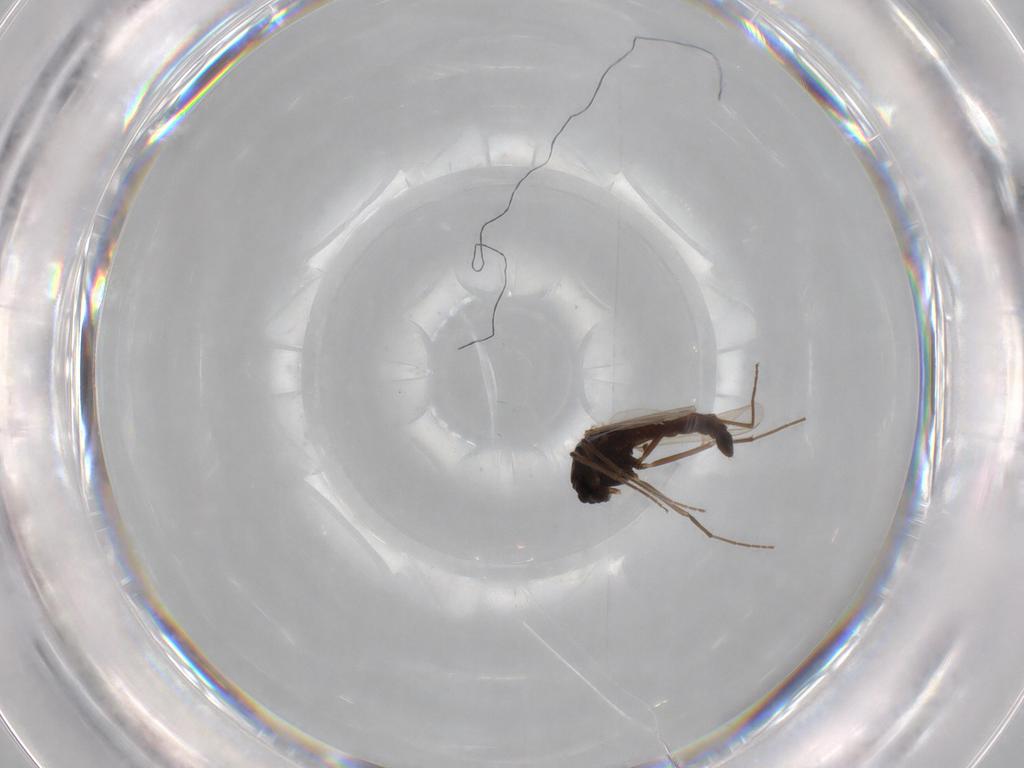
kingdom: Animalia
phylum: Arthropoda
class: Insecta
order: Diptera
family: Chironomidae
